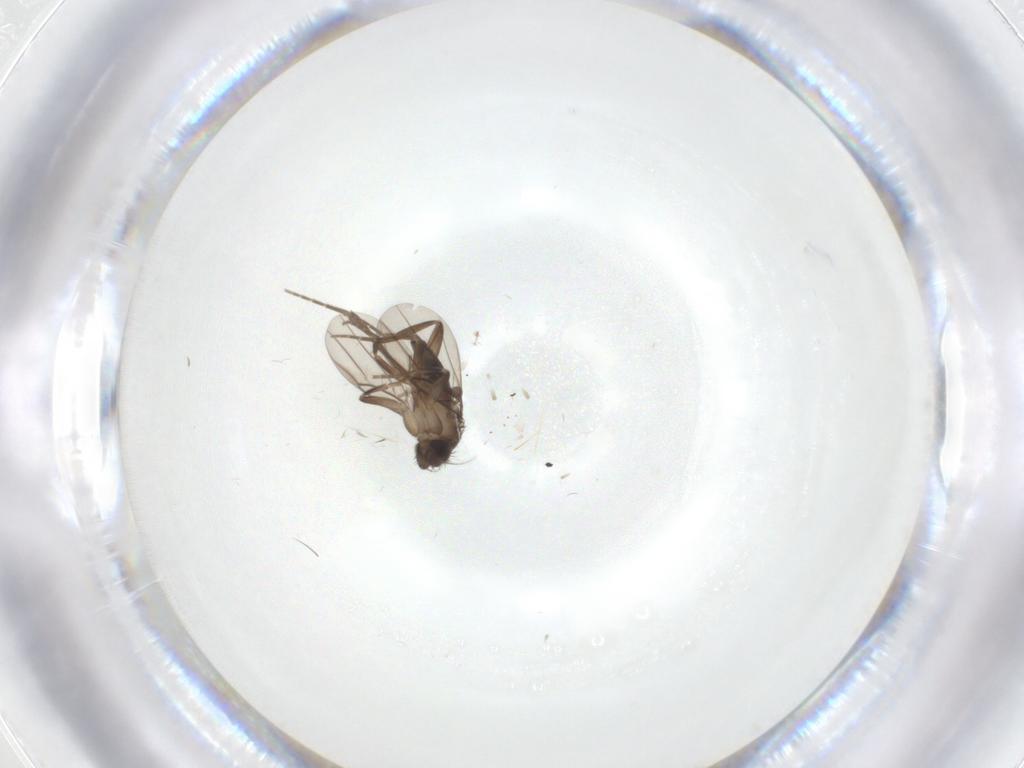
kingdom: Animalia
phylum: Arthropoda
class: Insecta
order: Diptera
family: Phoridae
